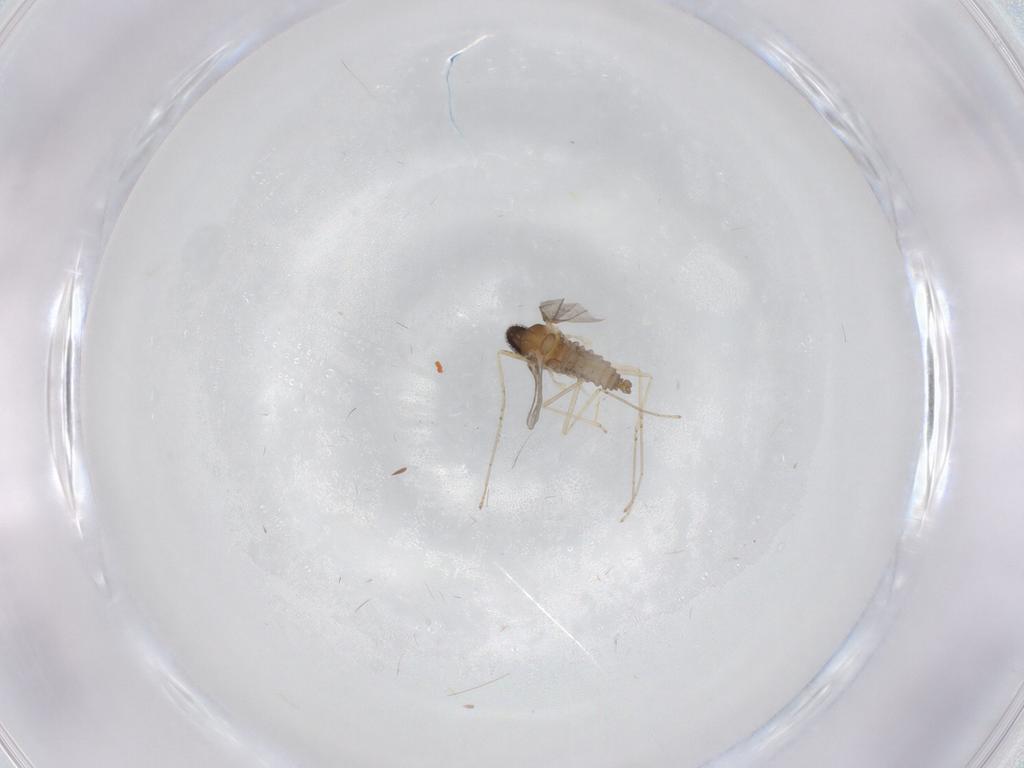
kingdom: Animalia
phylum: Arthropoda
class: Insecta
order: Diptera
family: Cecidomyiidae
